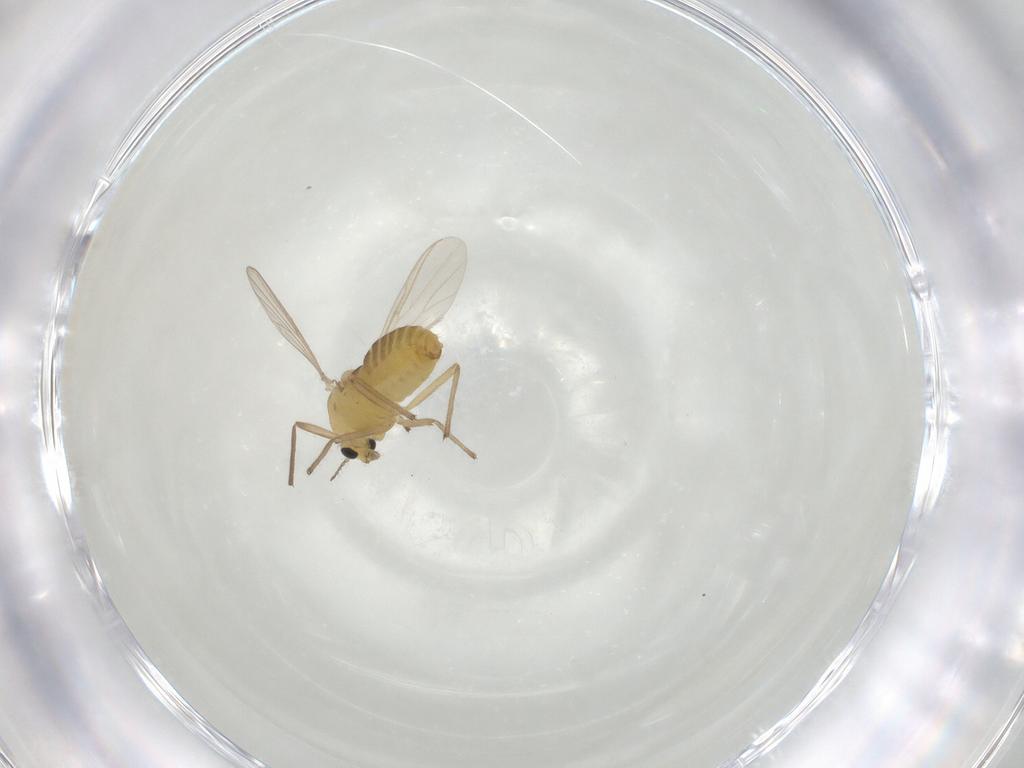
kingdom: Animalia
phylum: Arthropoda
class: Insecta
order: Diptera
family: Chironomidae
